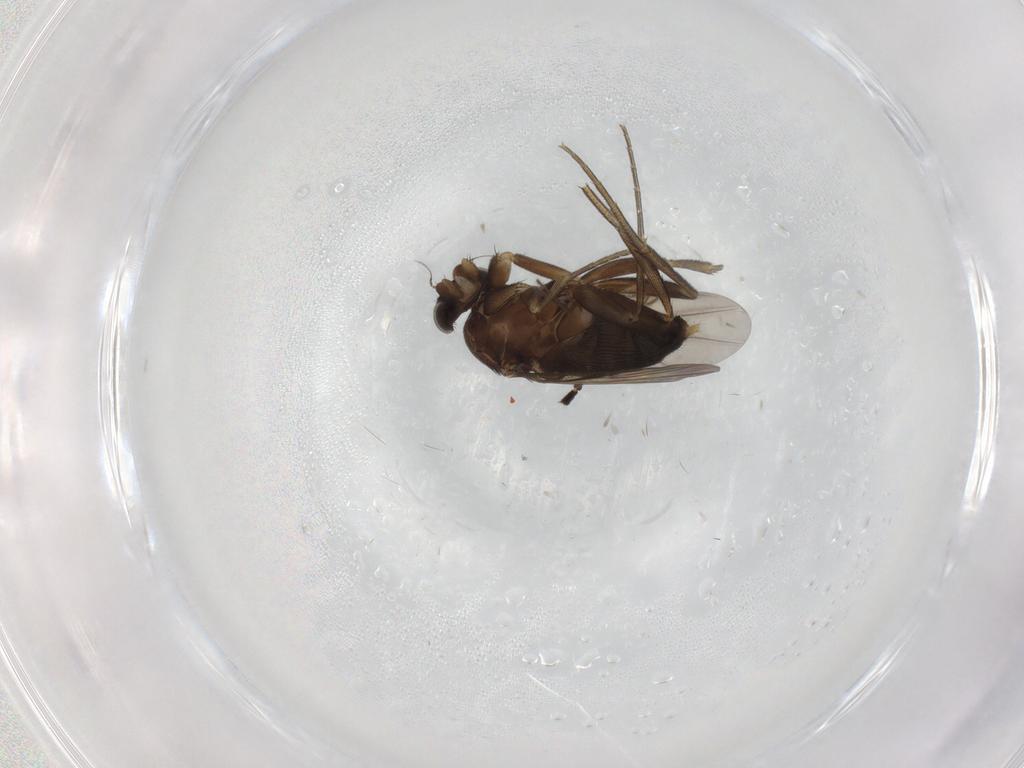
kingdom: Animalia
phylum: Arthropoda
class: Insecta
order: Diptera
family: Phoridae
